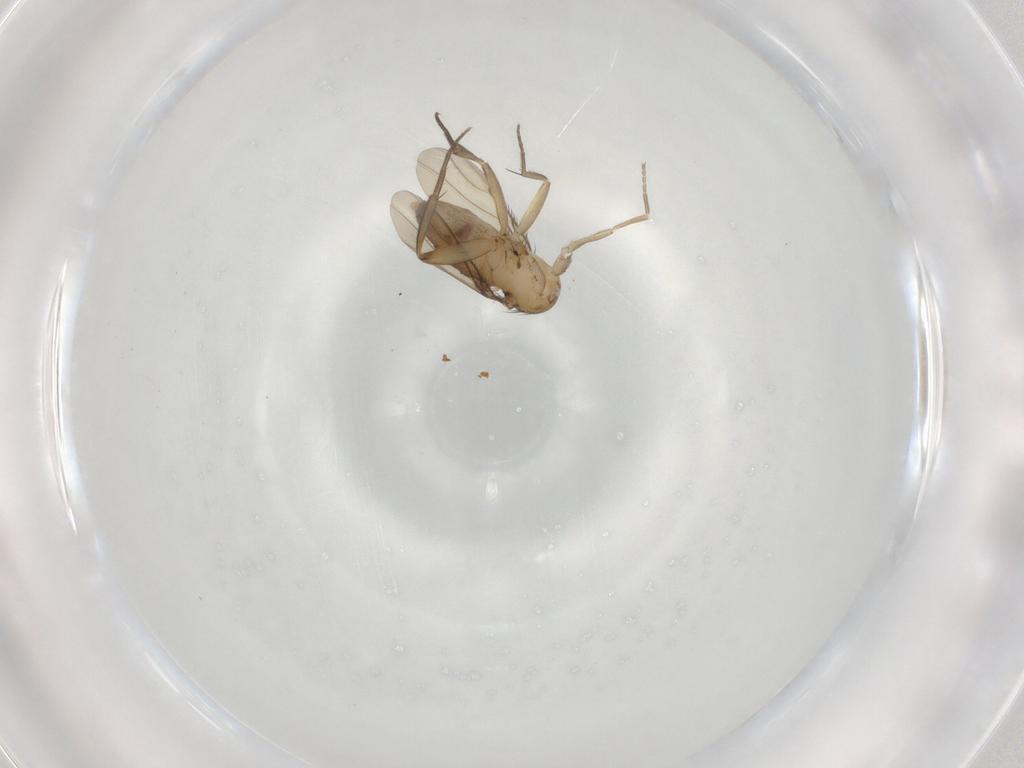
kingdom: Animalia
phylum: Arthropoda
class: Insecta
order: Diptera
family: Phoridae
